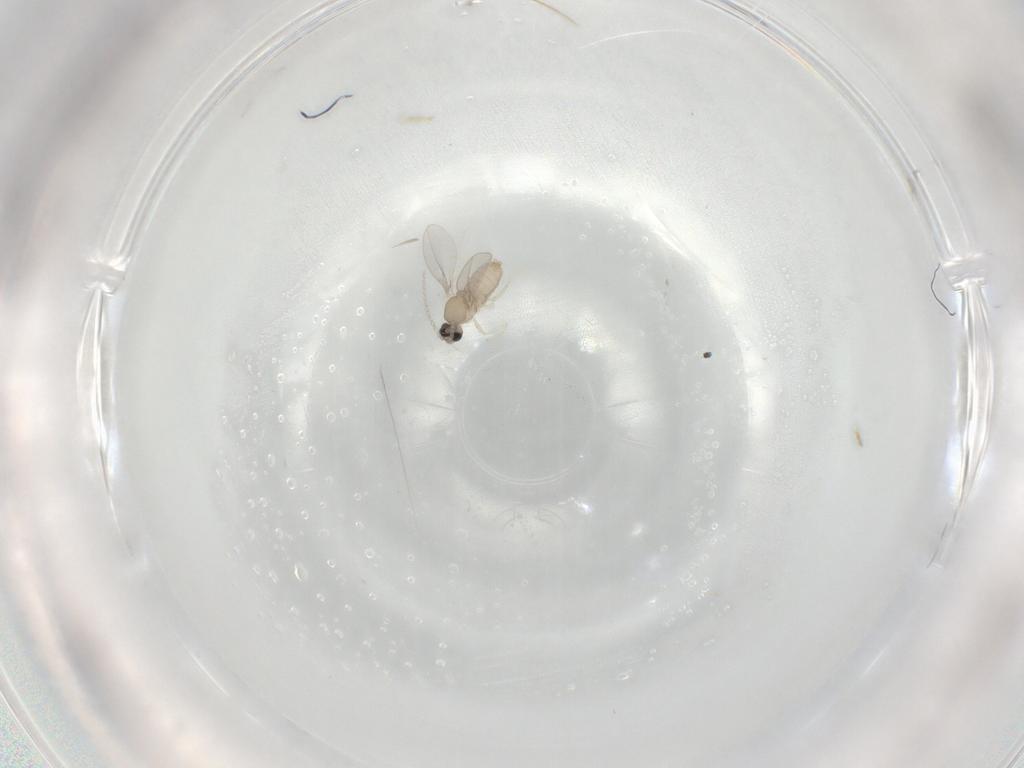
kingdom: Animalia
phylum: Arthropoda
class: Insecta
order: Diptera
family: Cecidomyiidae
